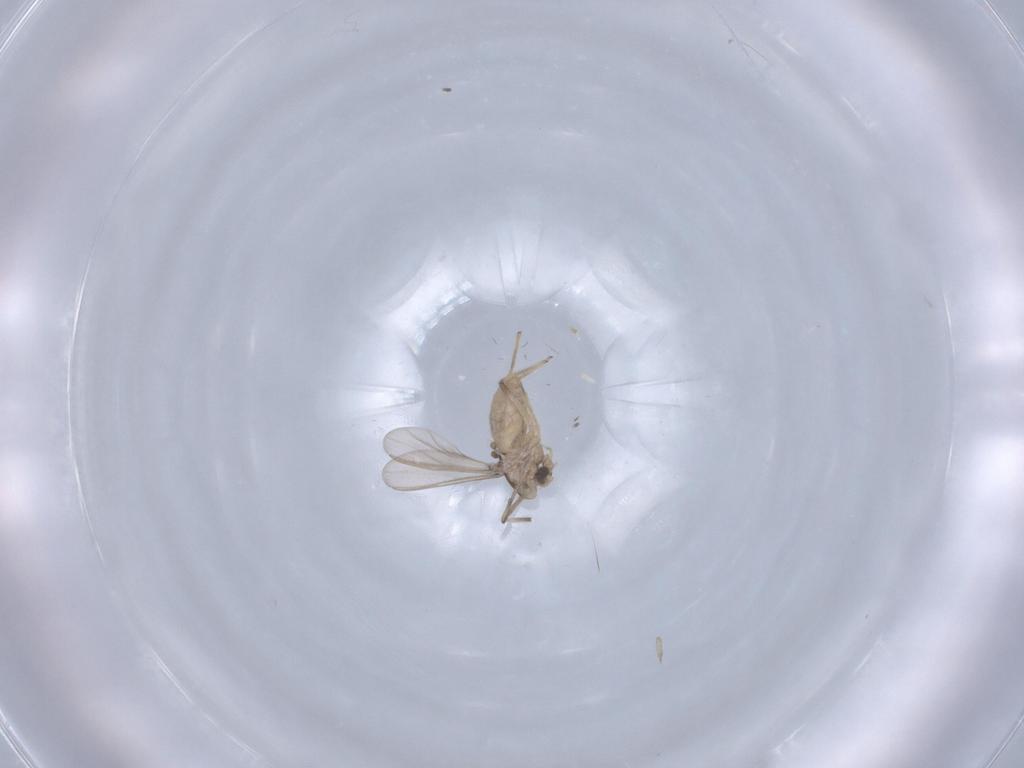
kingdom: Animalia
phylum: Arthropoda
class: Insecta
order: Diptera
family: Chironomidae
